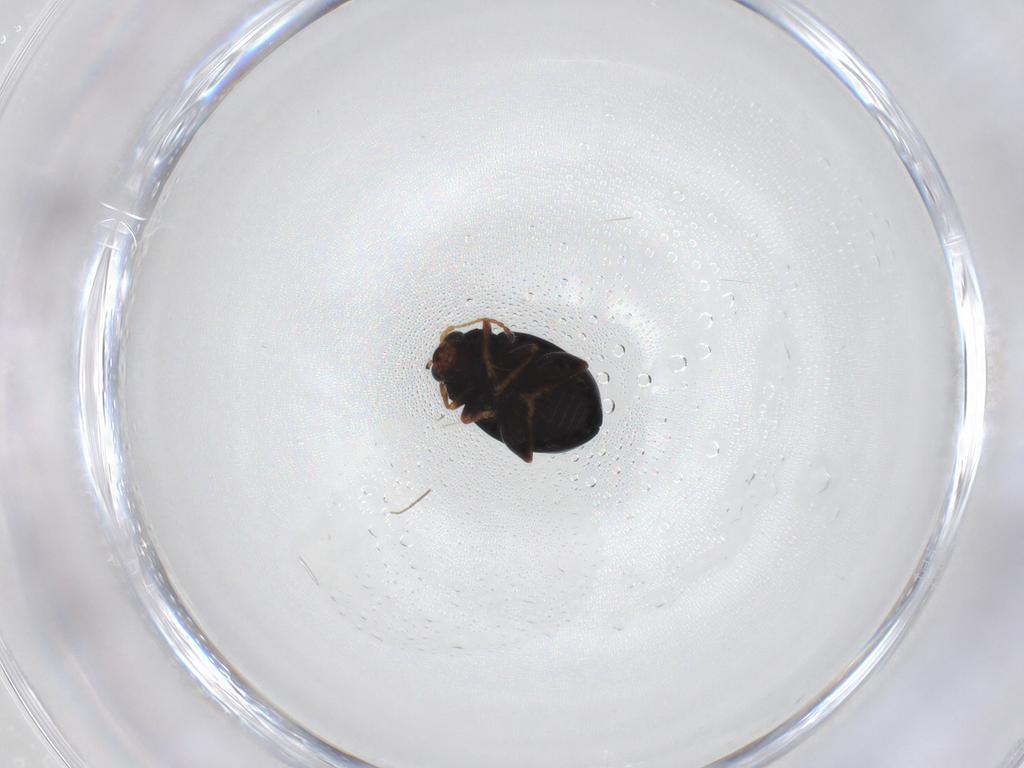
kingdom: Animalia
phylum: Arthropoda
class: Insecta
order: Coleoptera
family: Chrysomelidae
